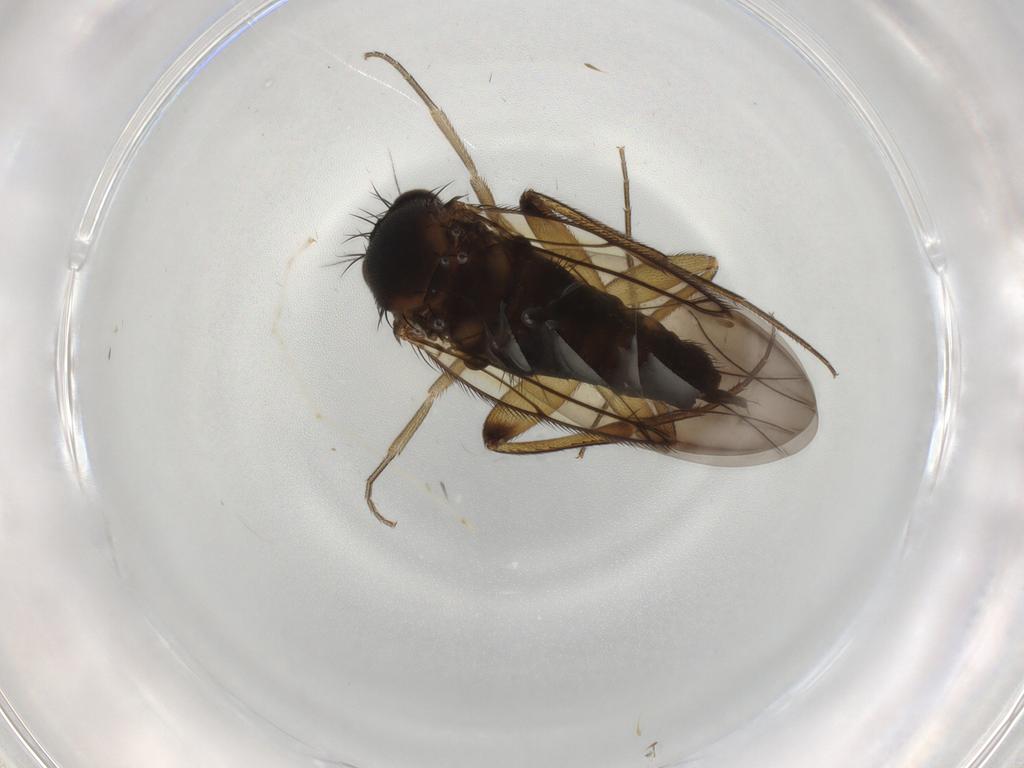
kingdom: Animalia
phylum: Arthropoda
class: Insecta
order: Diptera
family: Phoridae
